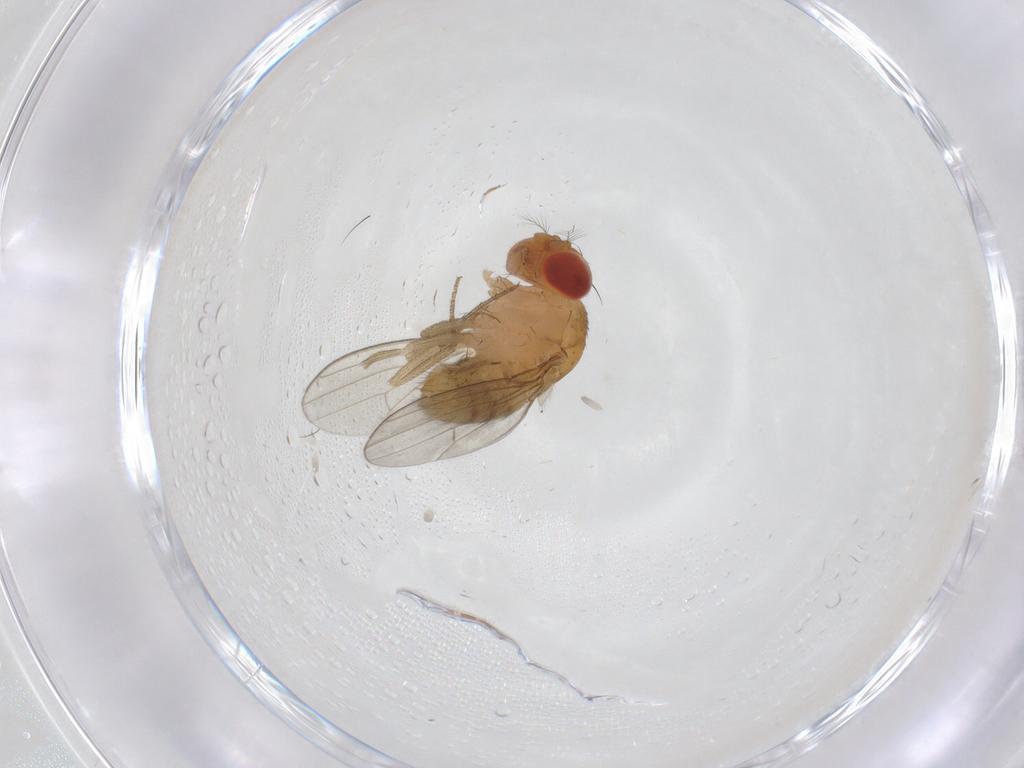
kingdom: Animalia
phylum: Arthropoda
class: Insecta
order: Diptera
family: Drosophilidae
